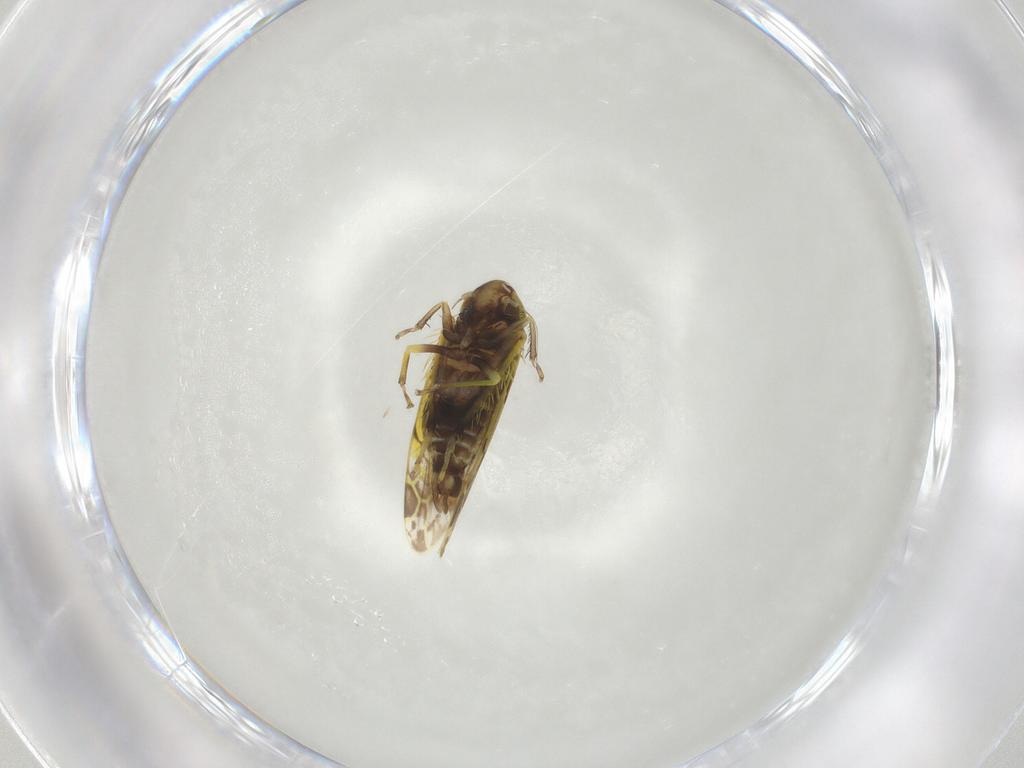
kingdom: Animalia
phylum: Arthropoda
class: Insecta
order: Hemiptera
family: Cicadellidae
